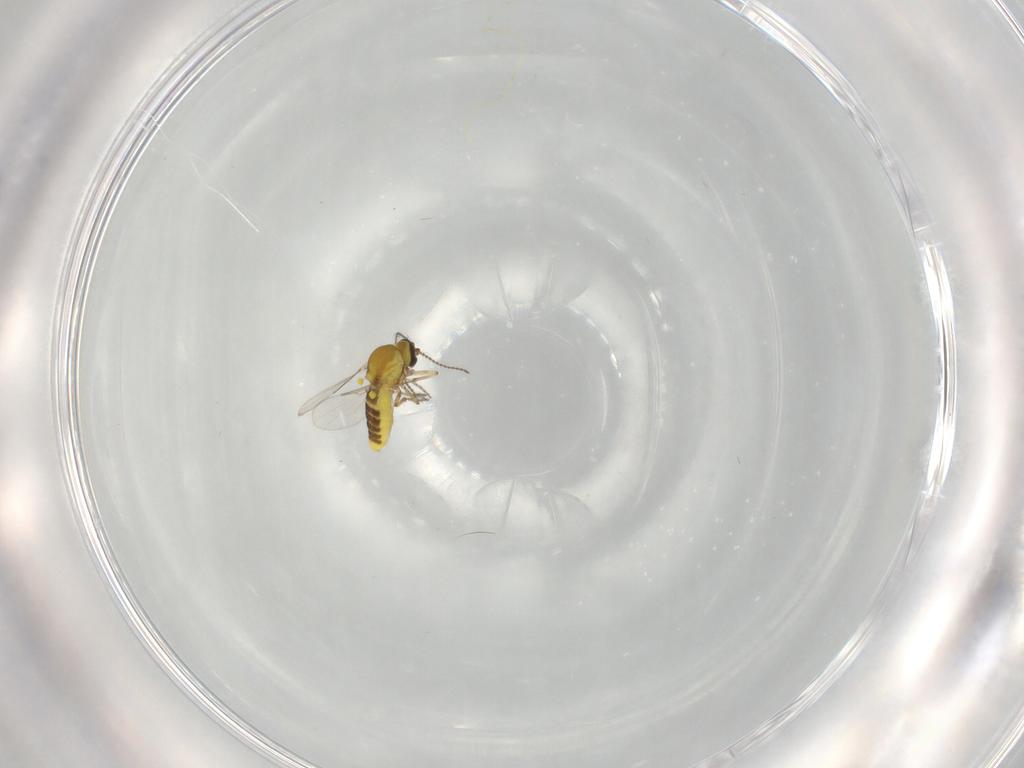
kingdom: Animalia
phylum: Arthropoda
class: Insecta
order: Diptera
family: Ceratopogonidae
